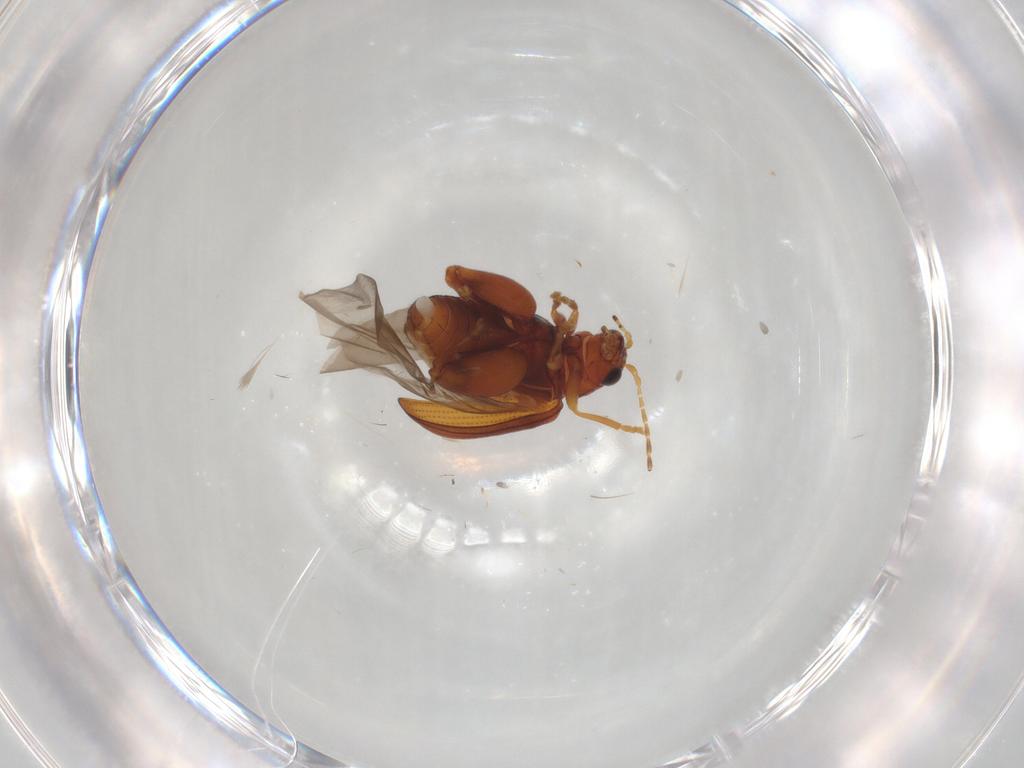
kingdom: Animalia
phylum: Arthropoda
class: Insecta
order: Coleoptera
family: Chrysomelidae
